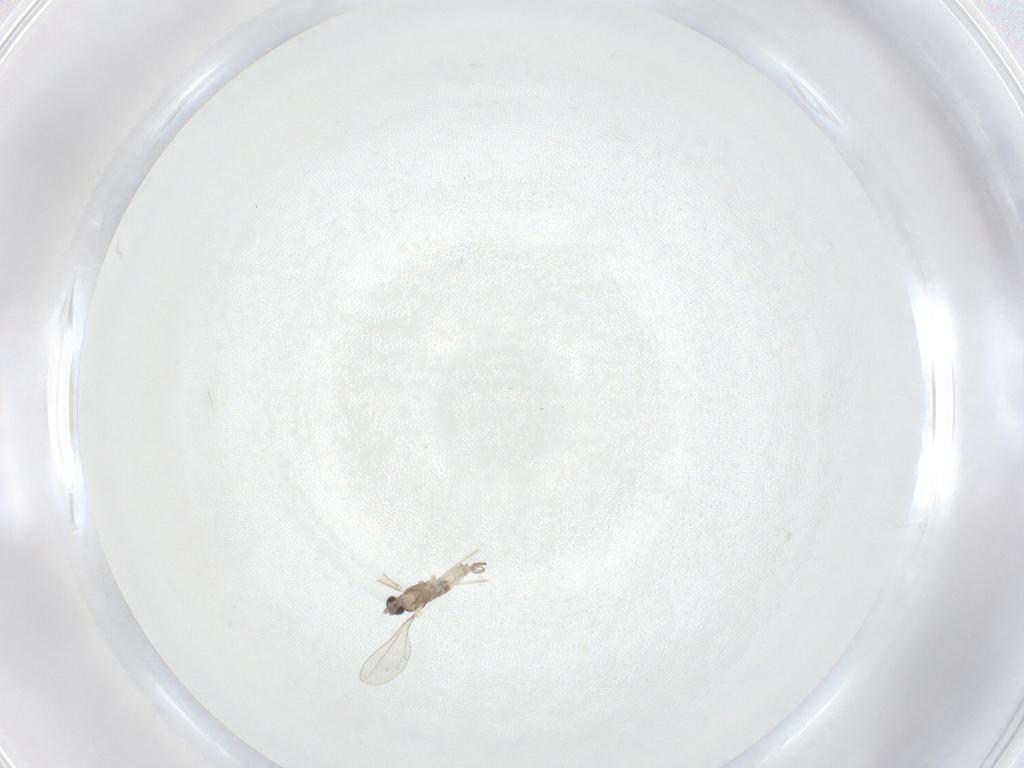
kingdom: Animalia
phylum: Arthropoda
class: Insecta
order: Diptera
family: Cecidomyiidae
